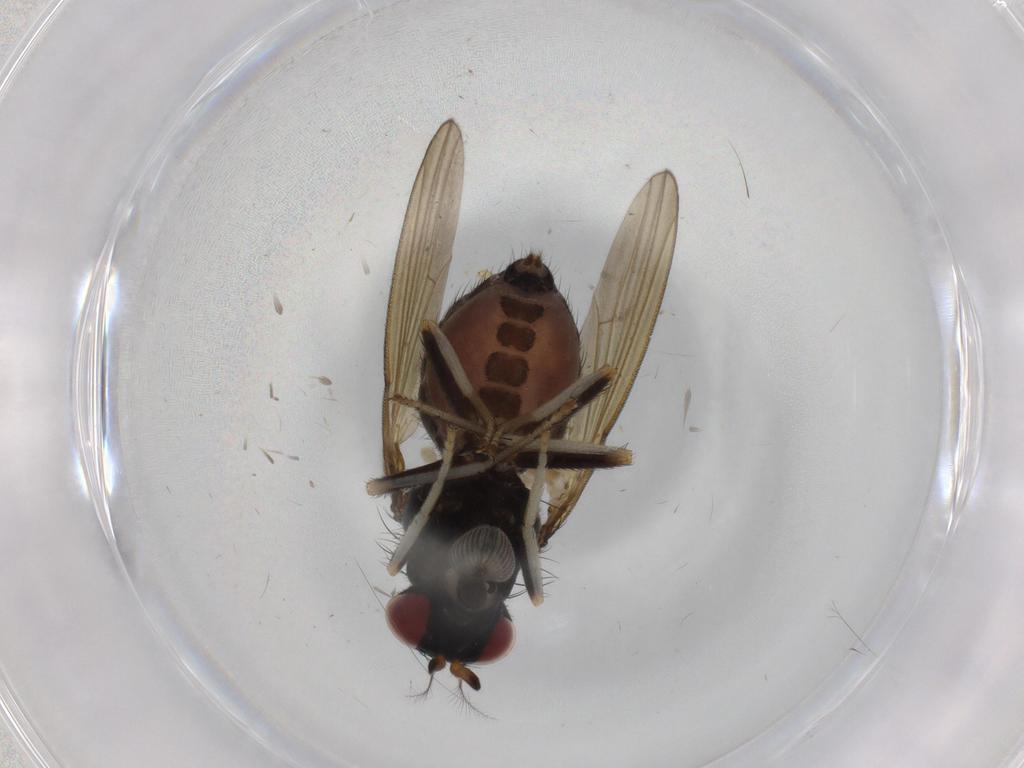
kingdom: Animalia
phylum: Arthropoda
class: Insecta
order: Diptera
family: Lauxaniidae
